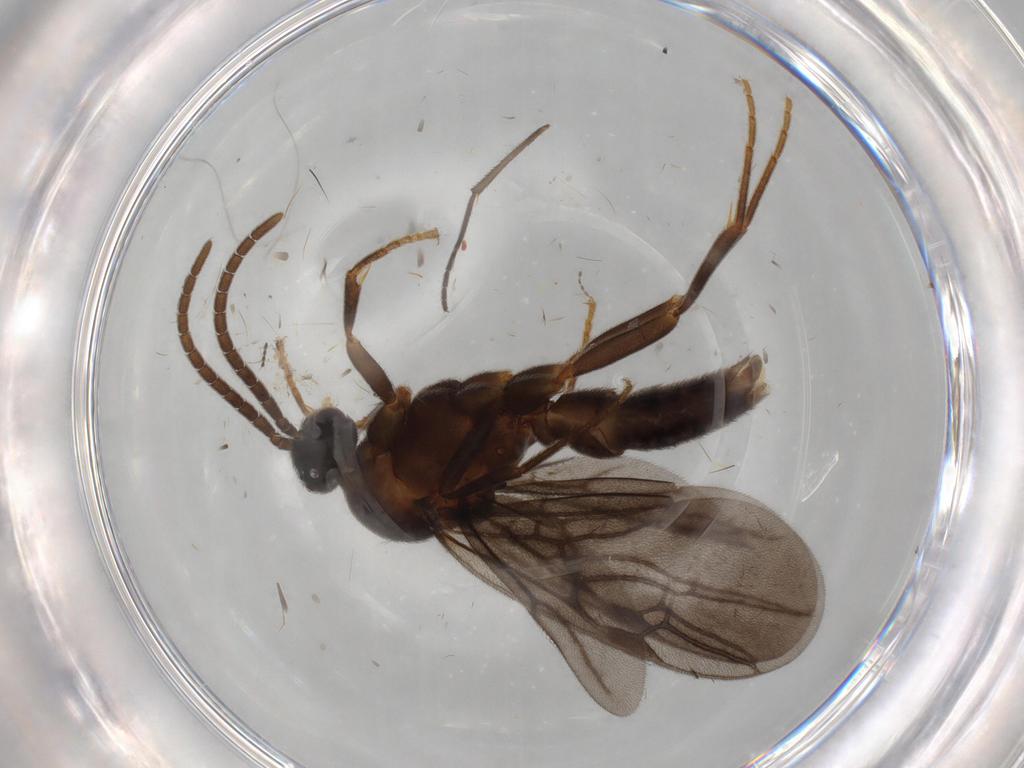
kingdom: Animalia
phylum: Arthropoda
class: Insecta
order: Hymenoptera
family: Formicidae
